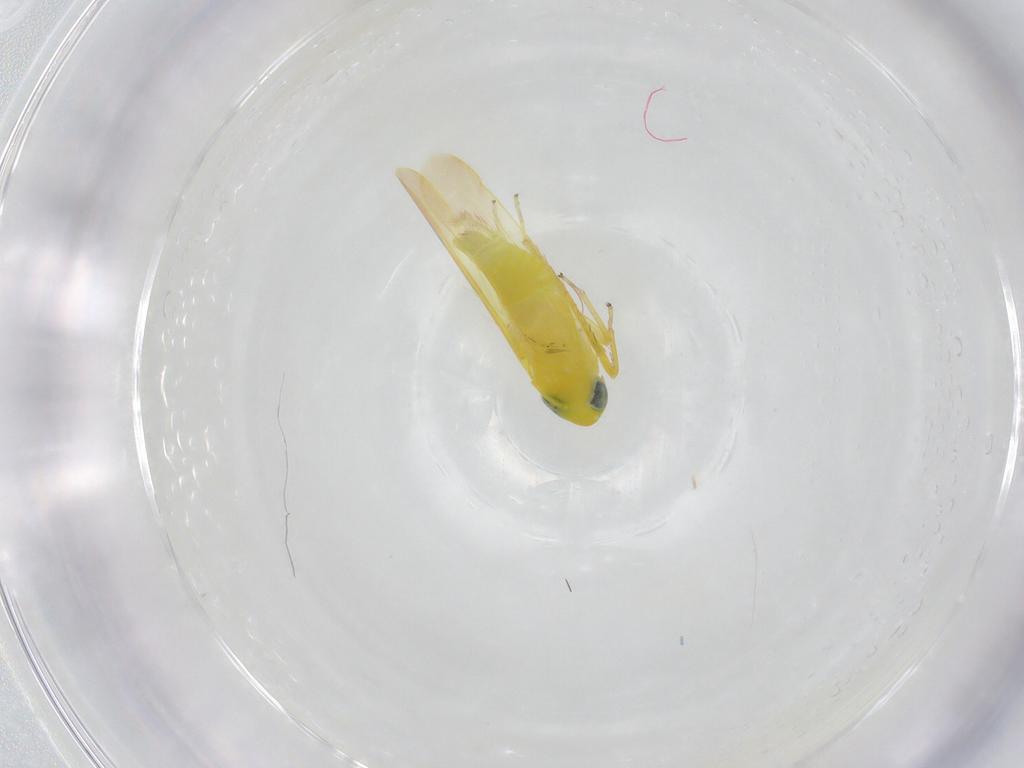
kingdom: Animalia
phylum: Arthropoda
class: Insecta
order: Hemiptera
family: Cicadellidae
